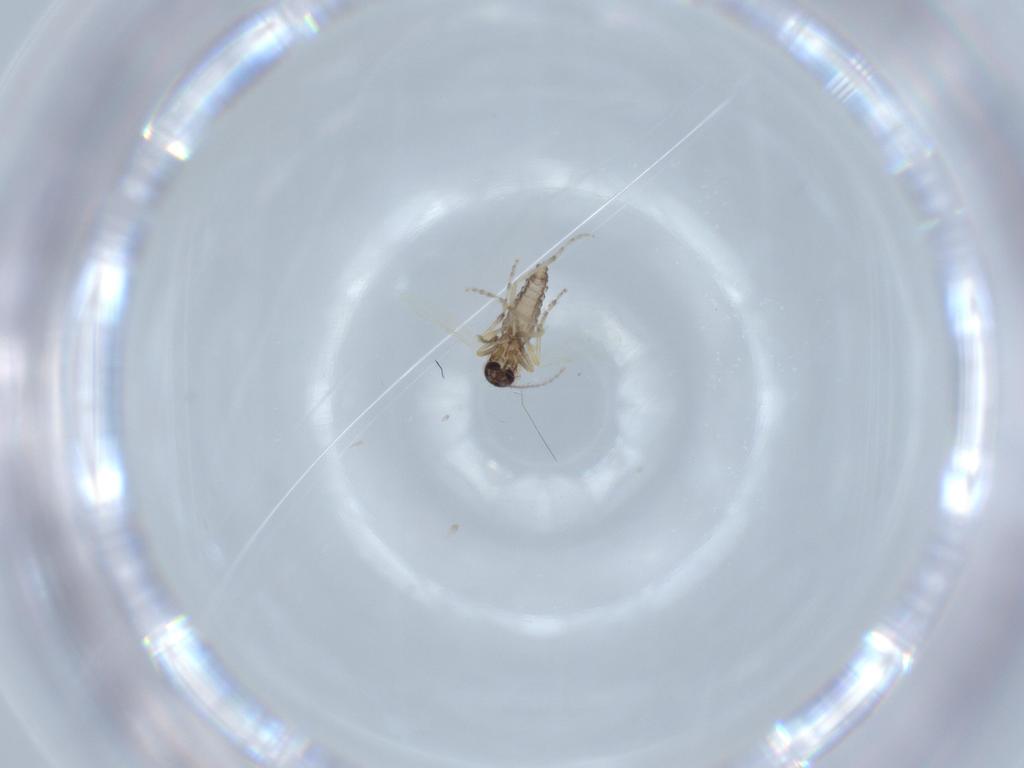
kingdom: Animalia
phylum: Arthropoda
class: Insecta
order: Diptera
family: Ceratopogonidae
